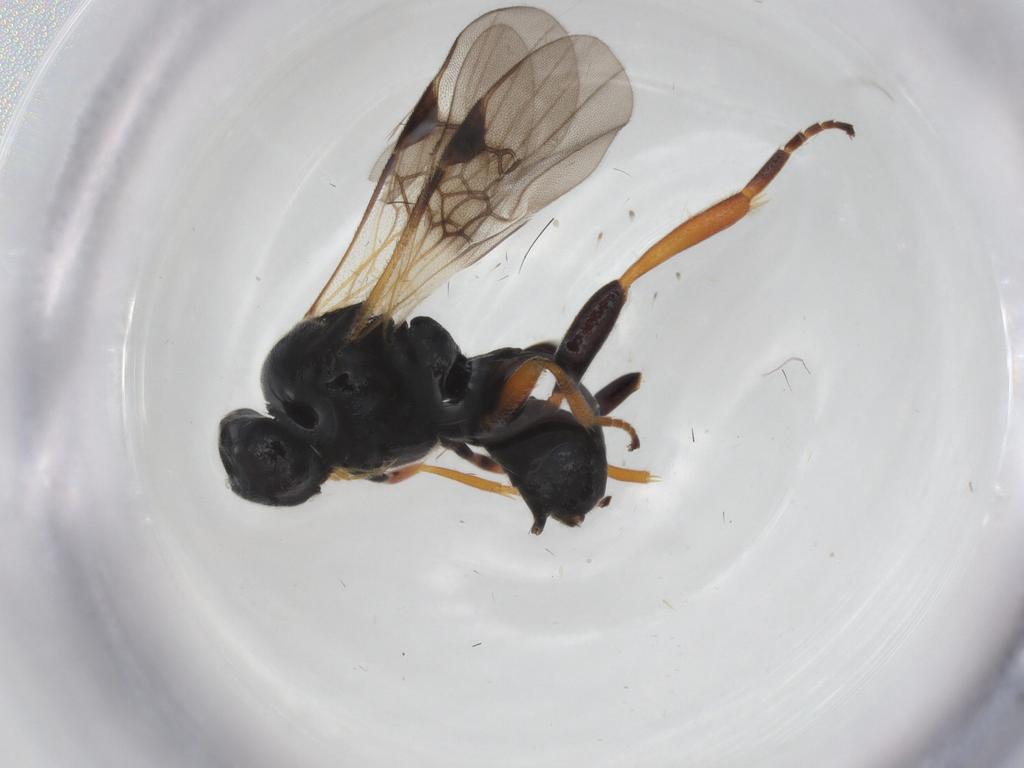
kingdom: Animalia
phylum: Arthropoda
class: Insecta
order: Hymenoptera
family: Braconidae
